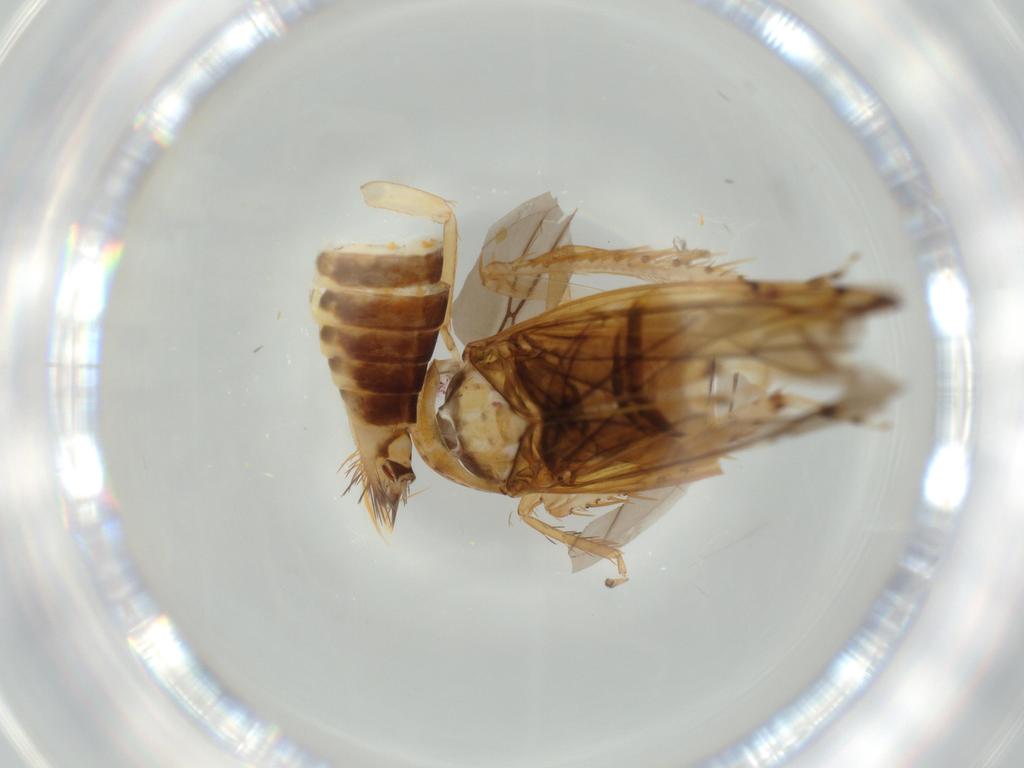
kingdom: Animalia
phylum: Arthropoda
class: Insecta
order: Hemiptera
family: Cicadellidae
